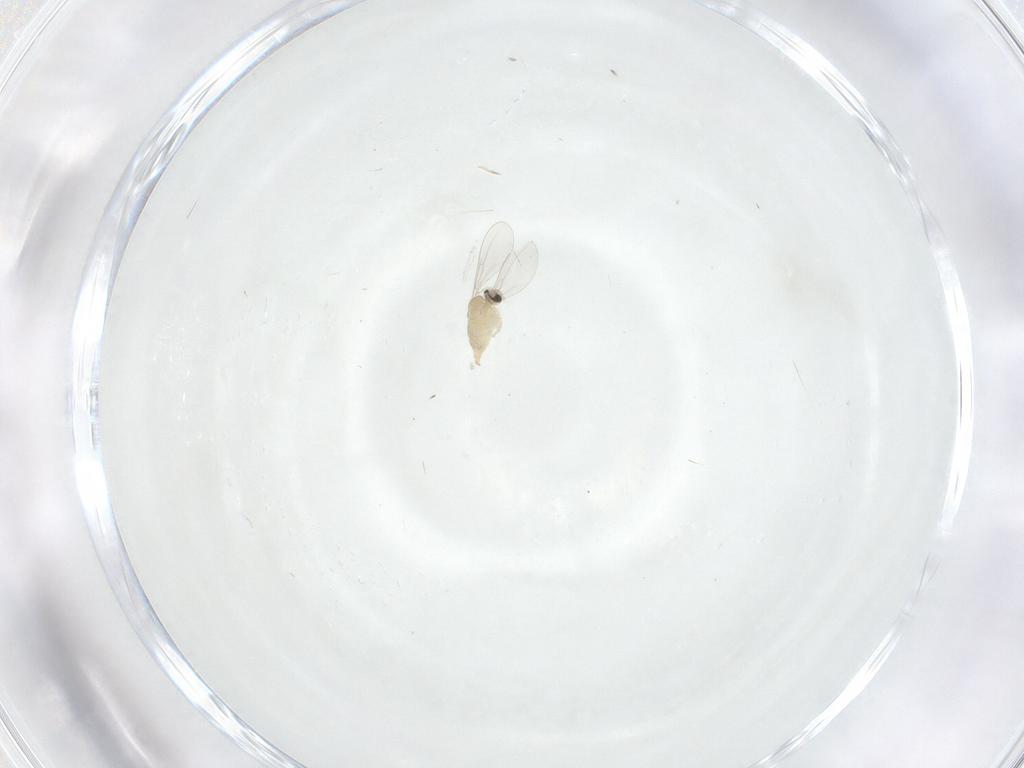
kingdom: Animalia
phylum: Arthropoda
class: Insecta
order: Diptera
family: Cecidomyiidae
